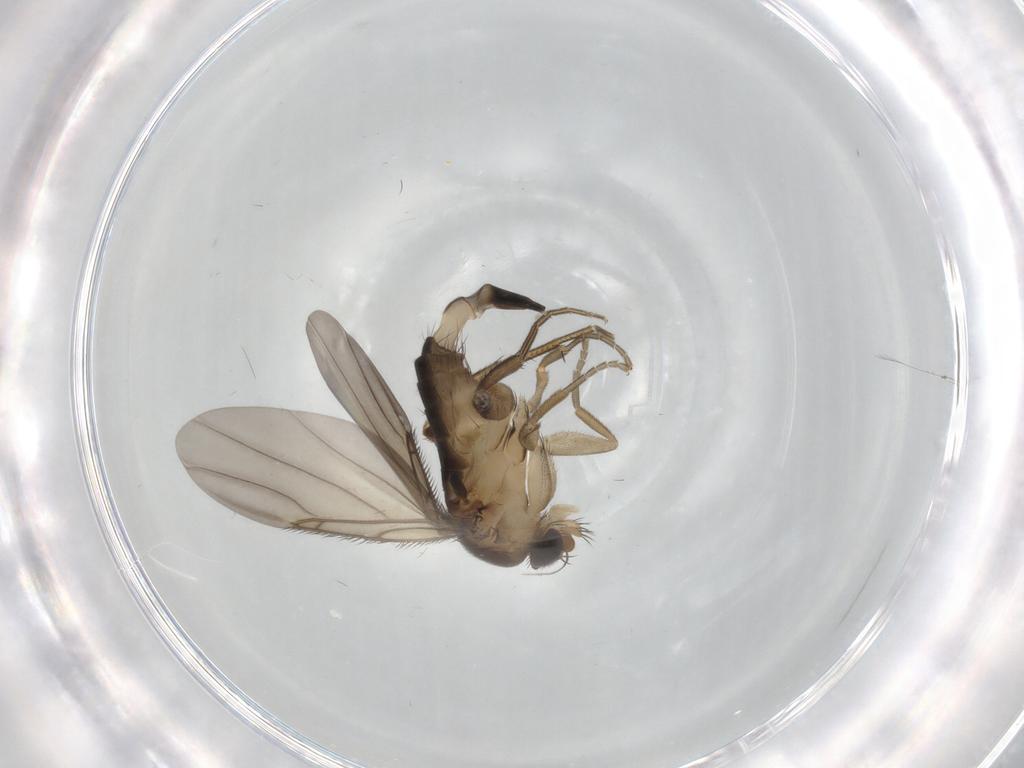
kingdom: Animalia
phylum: Arthropoda
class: Insecta
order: Diptera
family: Phoridae
